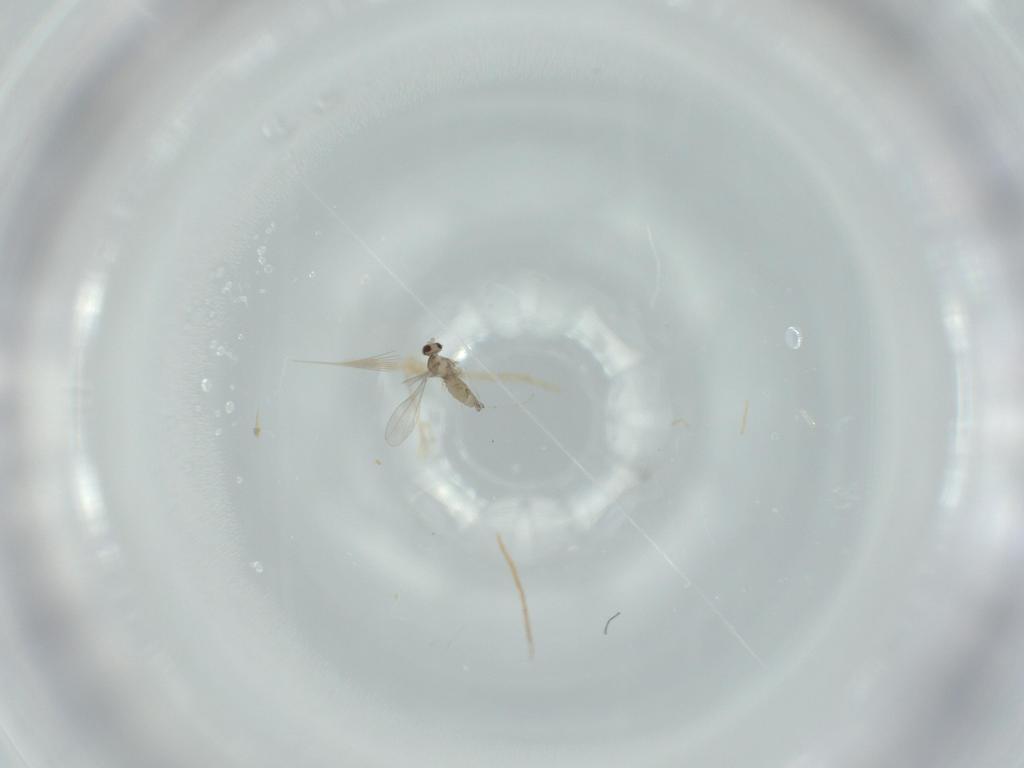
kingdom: Animalia
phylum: Arthropoda
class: Insecta
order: Diptera
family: Cecidomyiidae
